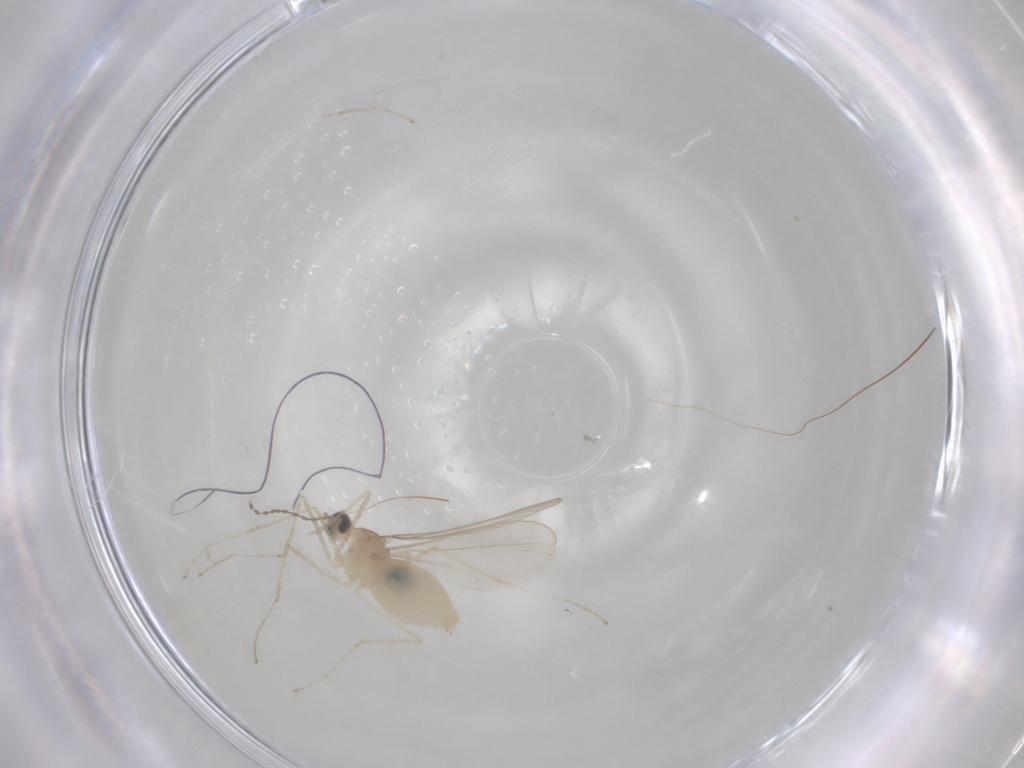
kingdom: Animalia
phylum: Arthropoda
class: Insecta
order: Diptera
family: Cecidomyiidae
